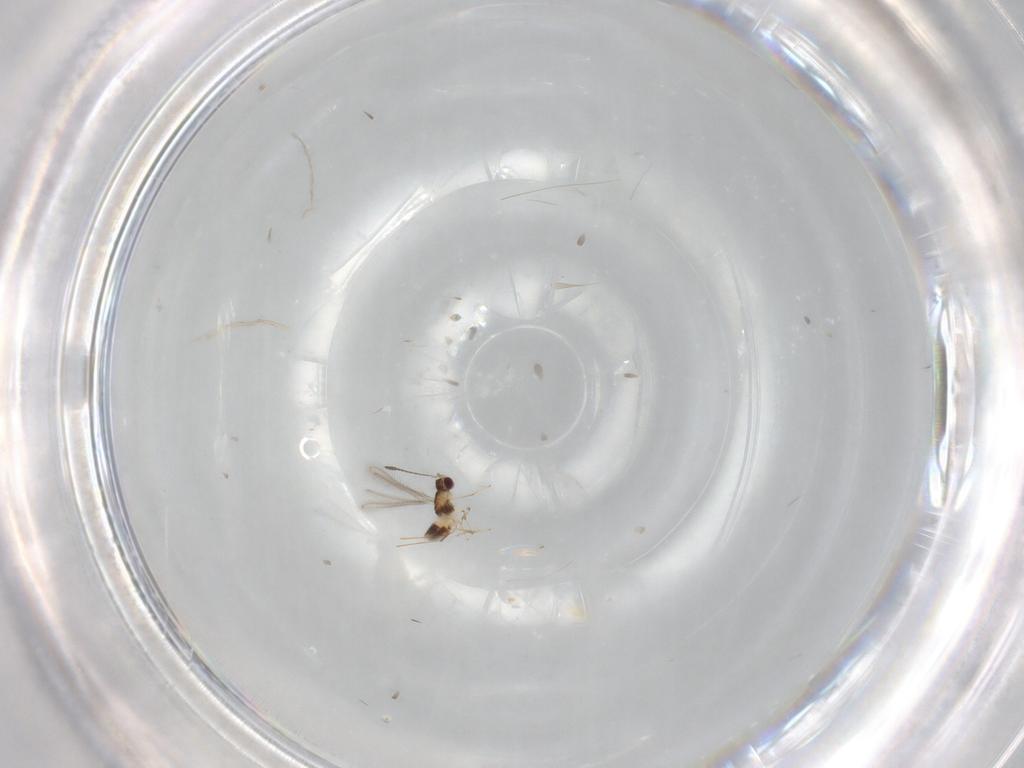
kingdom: Animalia
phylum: Arthropoda
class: Insecta
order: Hymenoptera
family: Mymaridae
